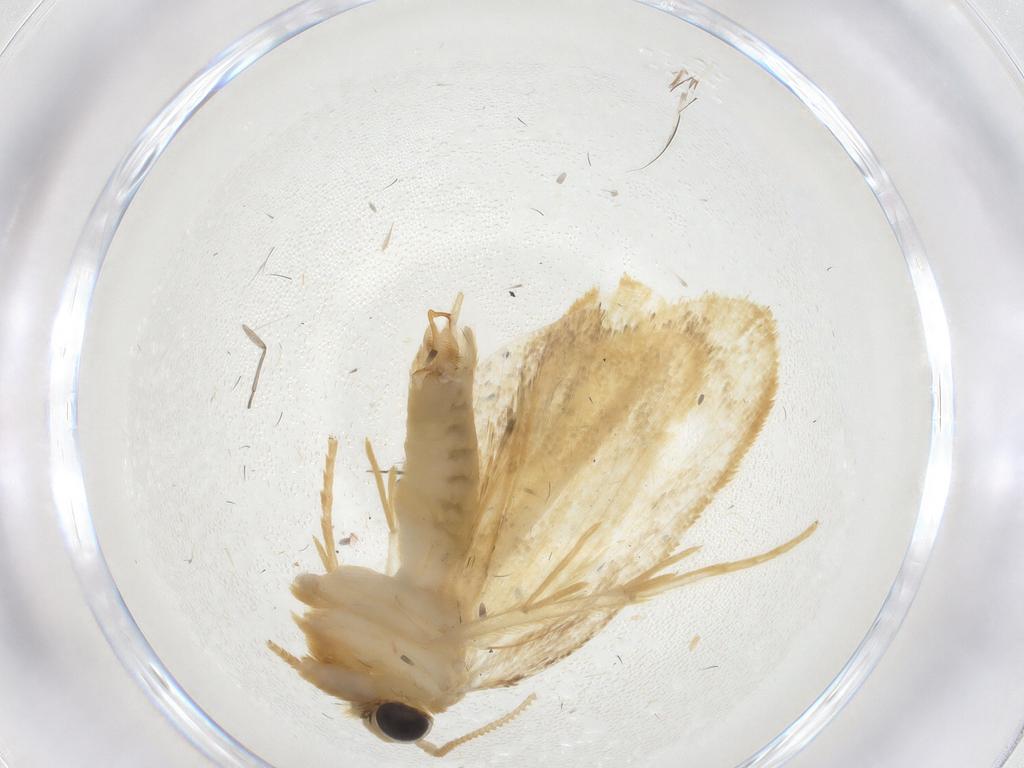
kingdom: Animalia
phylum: Arthropoda
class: Insecta
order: Lepidoptera
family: Psychidae
